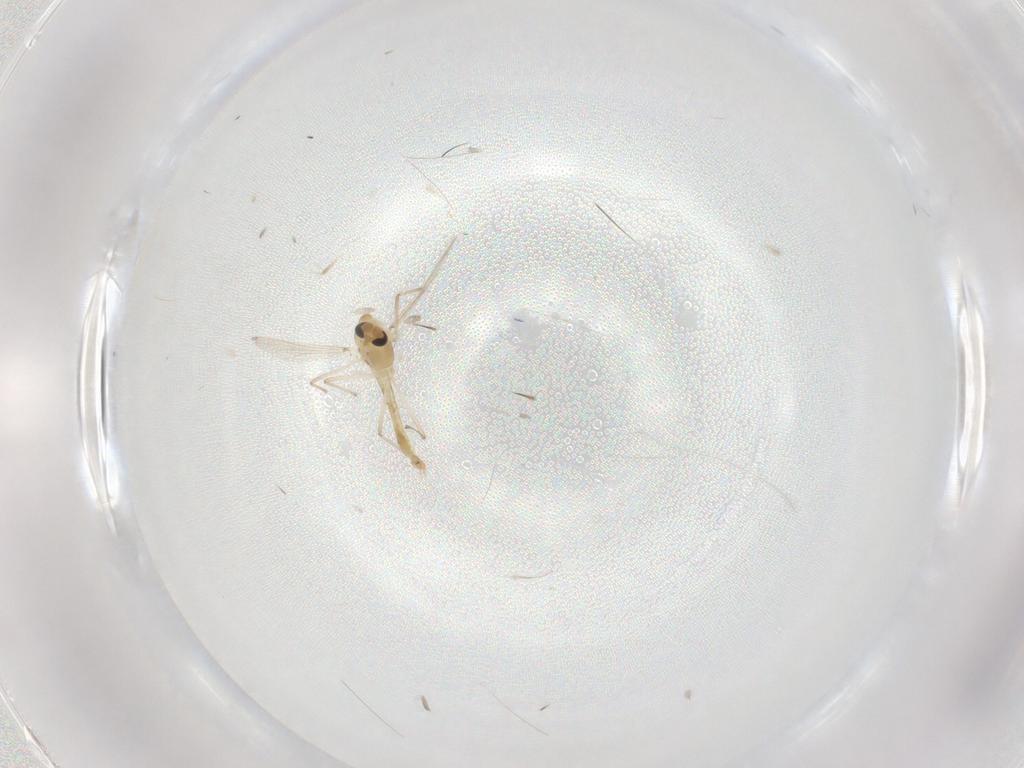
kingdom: Animalia
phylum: Arthropoda
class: Insecta
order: Diptera
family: Chironomidae
